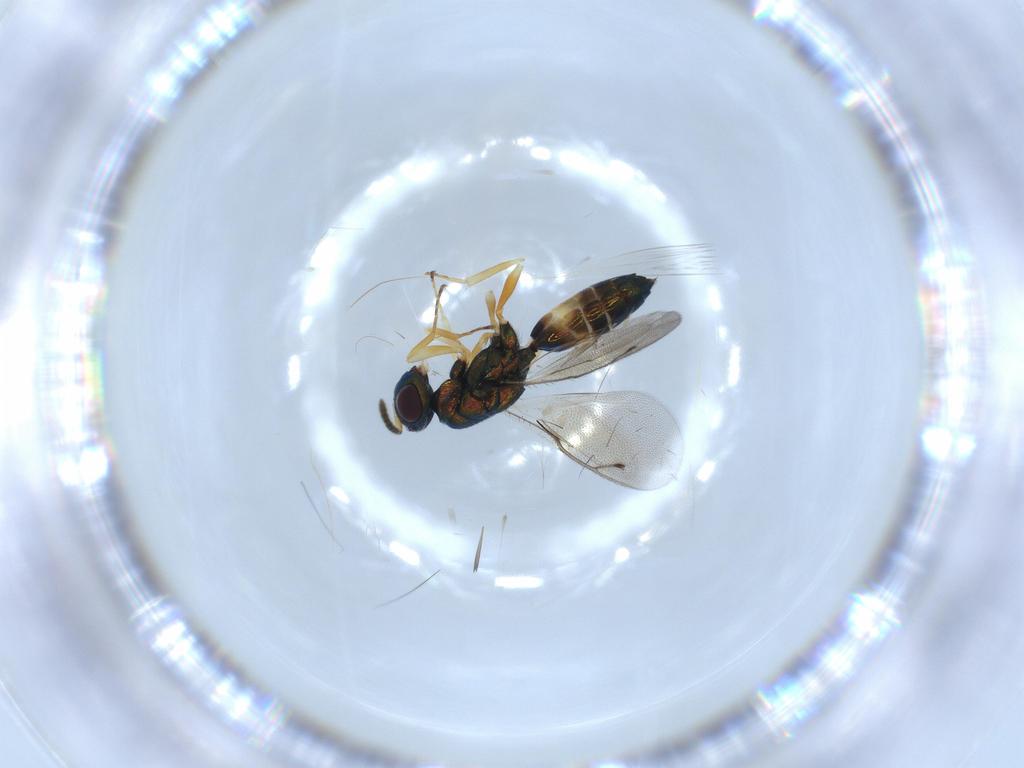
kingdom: Animalia
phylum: Arthropoda
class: Insecta
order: Hymenoptera
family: Pteromalidae
